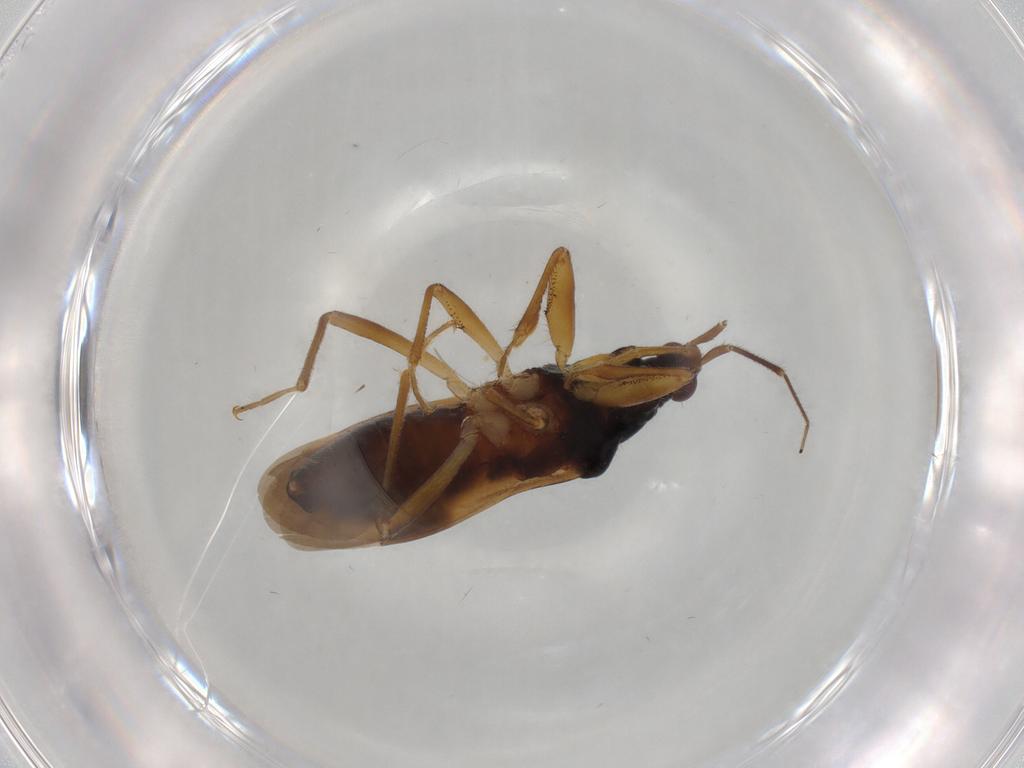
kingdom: Animalia
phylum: Arthropoda
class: Insecta
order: Hemiptera
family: Nabidae
